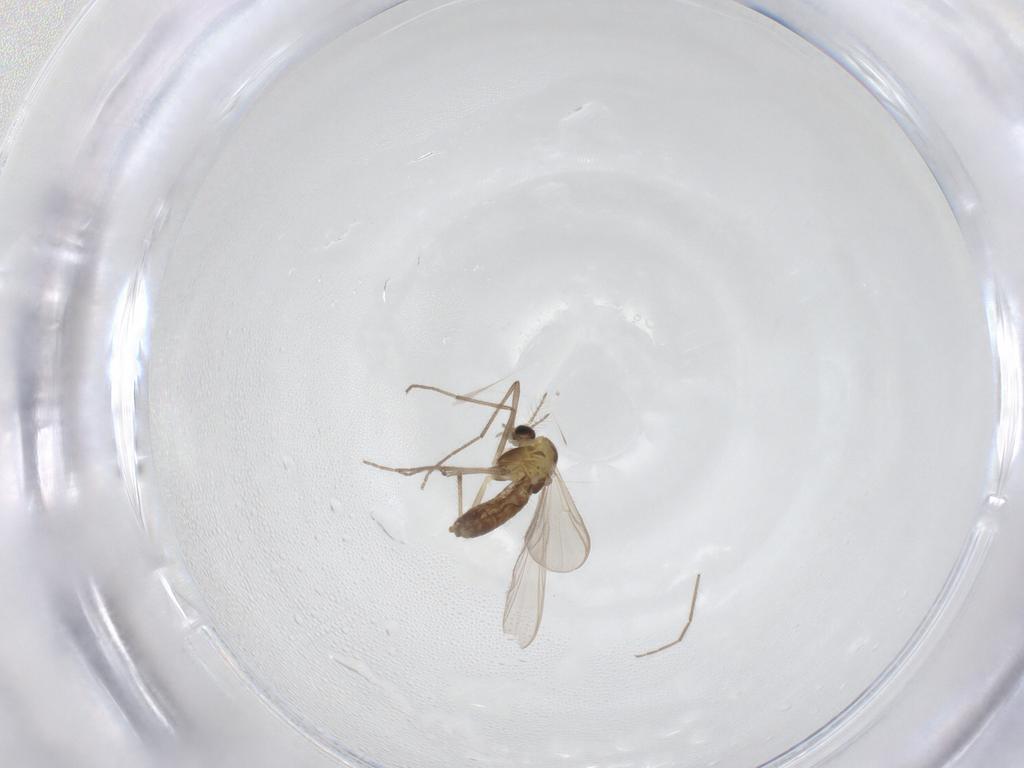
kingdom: Animalia
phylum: Arthropoda
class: Insecta
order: Diptera
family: Chironomidae
